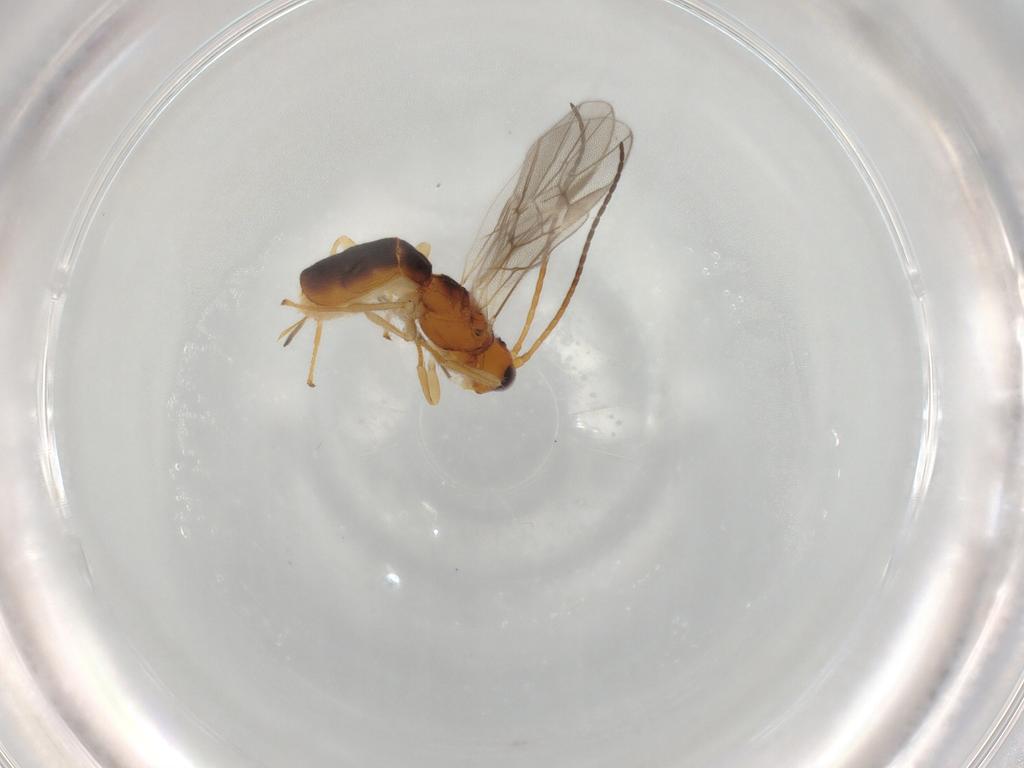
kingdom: Animalia
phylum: Arthropoda
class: Insecta
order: Hymenoptera
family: Braconidae
